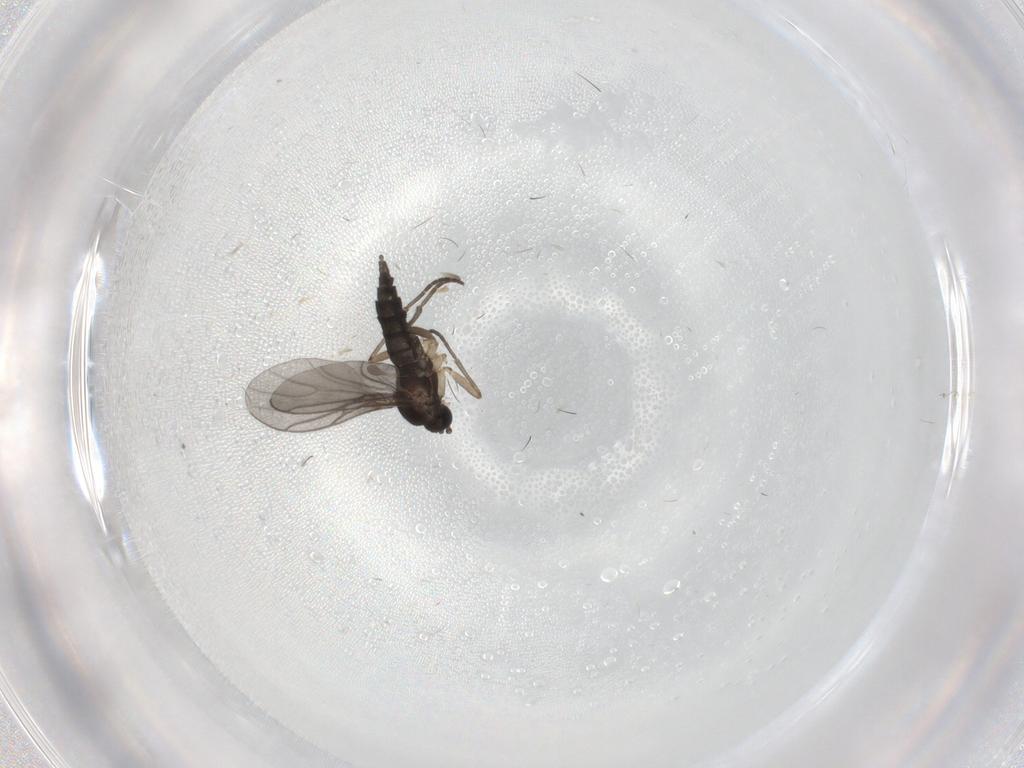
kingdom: Animalia
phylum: Arthropoda
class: Insecta
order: Diptera
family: Sciaridae
